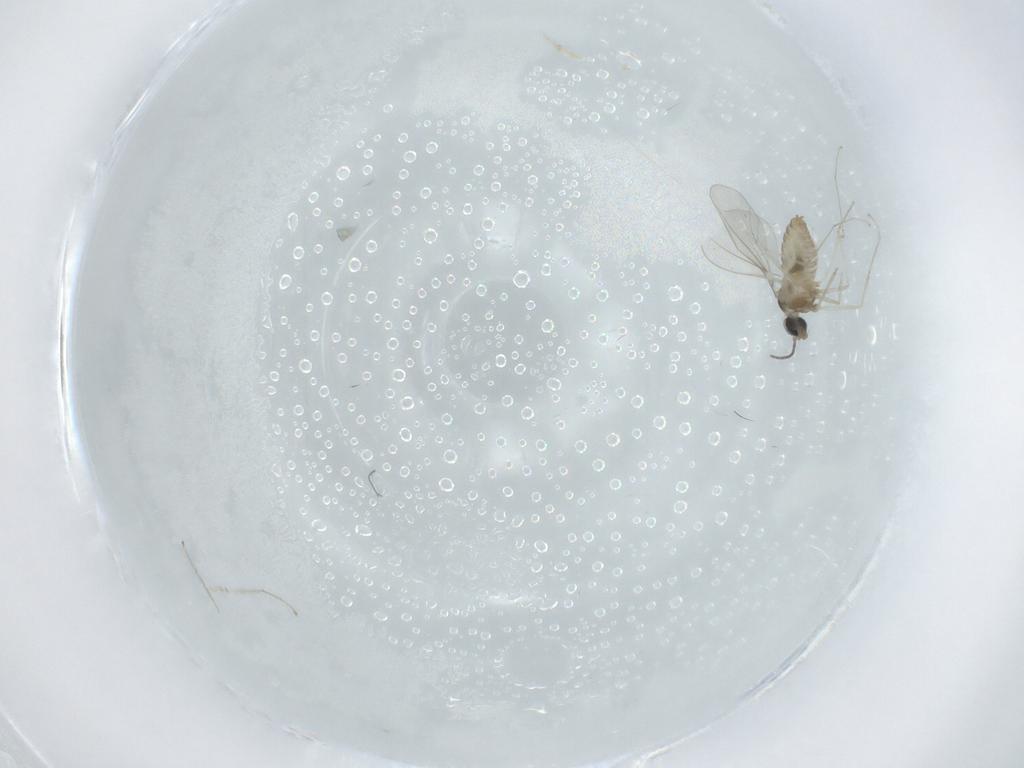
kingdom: Animalia
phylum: Arthropoda
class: Insecta
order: Diptera
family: Cecidomyiidae
